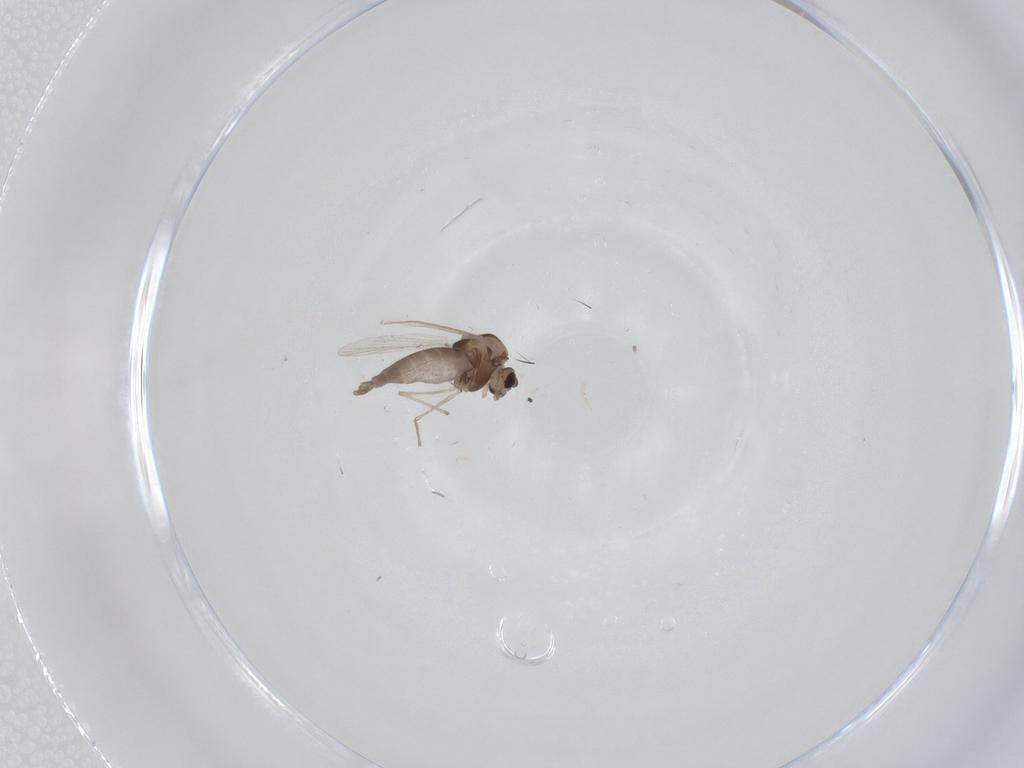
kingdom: Animalia
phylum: Arthropoda
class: Insecta
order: Diptera
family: Phoridae
